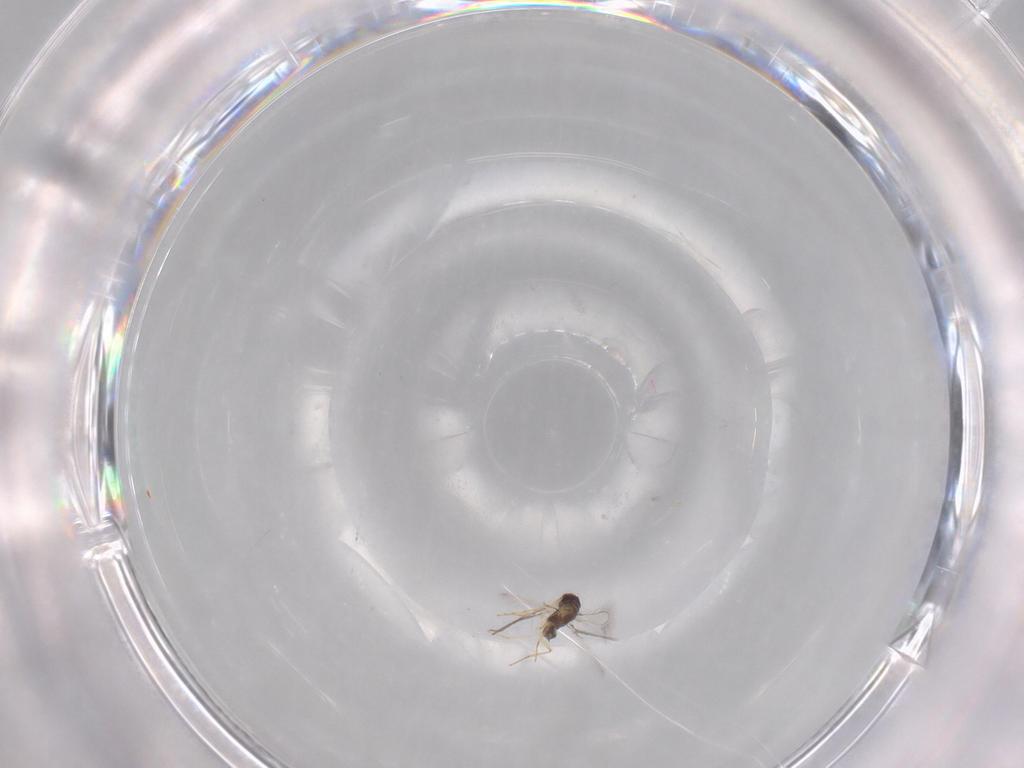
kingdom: Animalia
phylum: Arthropoda
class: Insecta
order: Hymenoptera
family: Mymaridae
